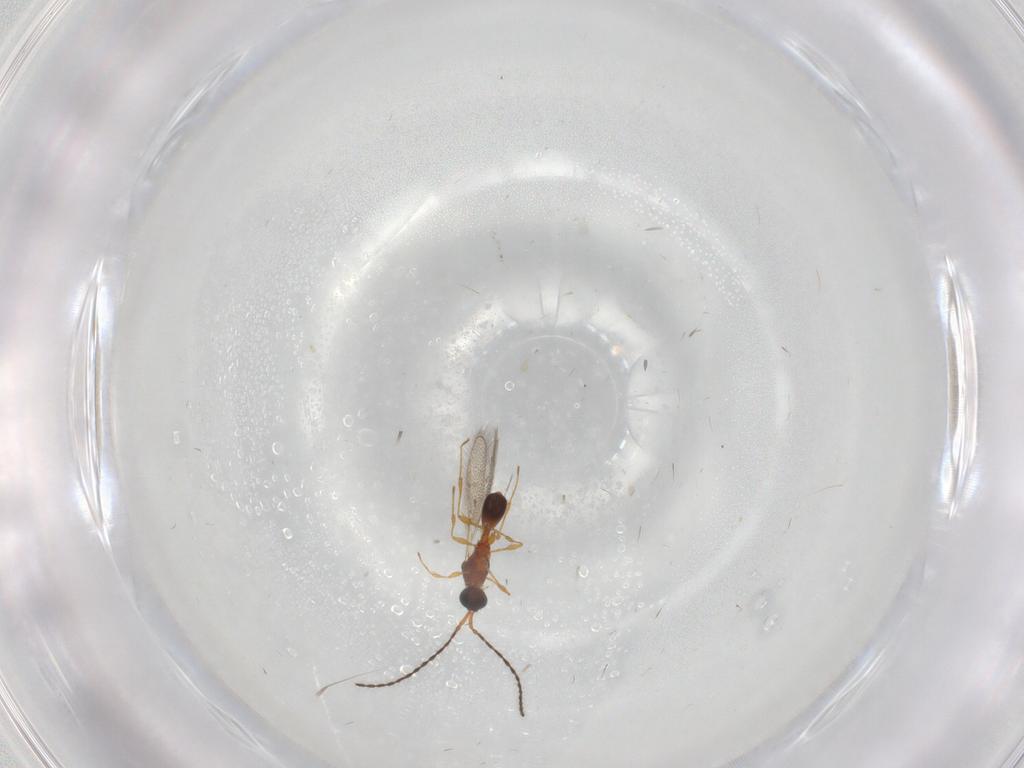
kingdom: Animalia
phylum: Arthropoda
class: Insecta
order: Hymenoptera
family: Diapriidae
